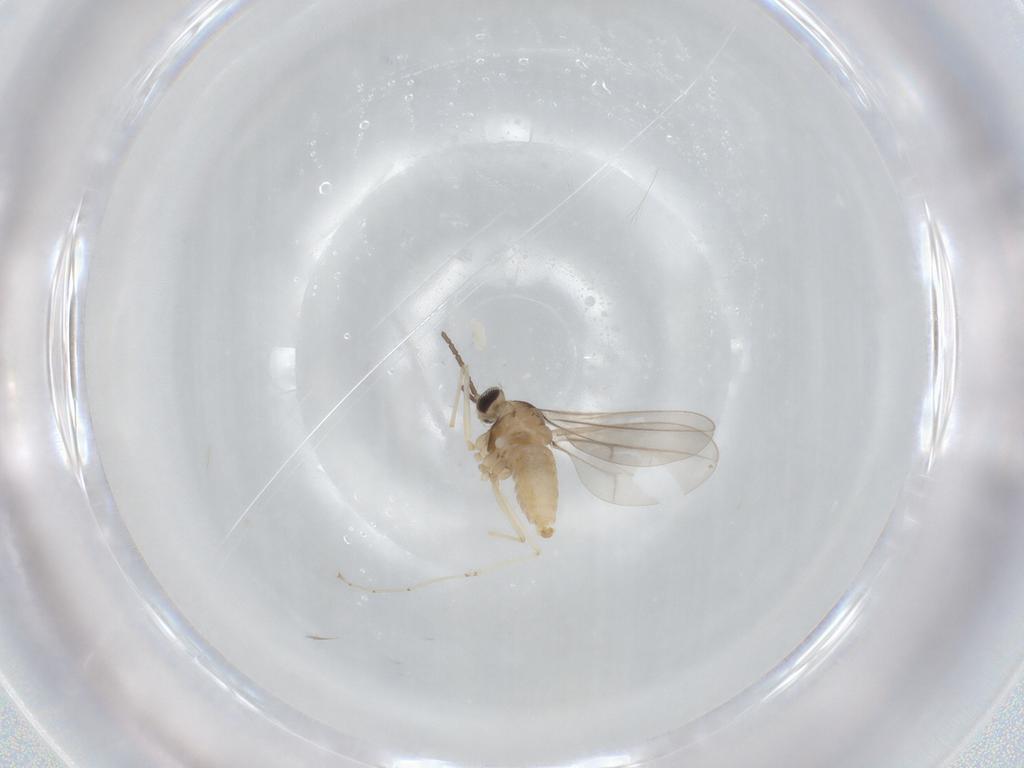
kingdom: Animalia
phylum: Arthropoda
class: Insecta
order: Diptera
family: Cecidomyiidae
